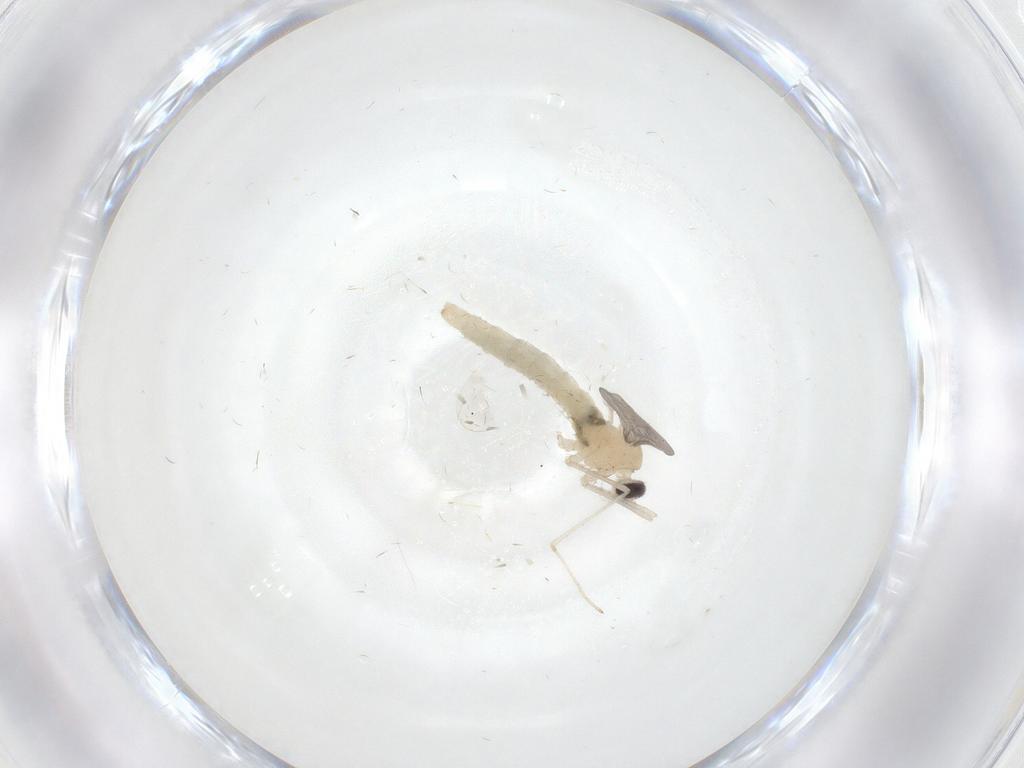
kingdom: Animalia
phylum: Arthropoda
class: Insecta
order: Diptera
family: Cecidomyiidae
